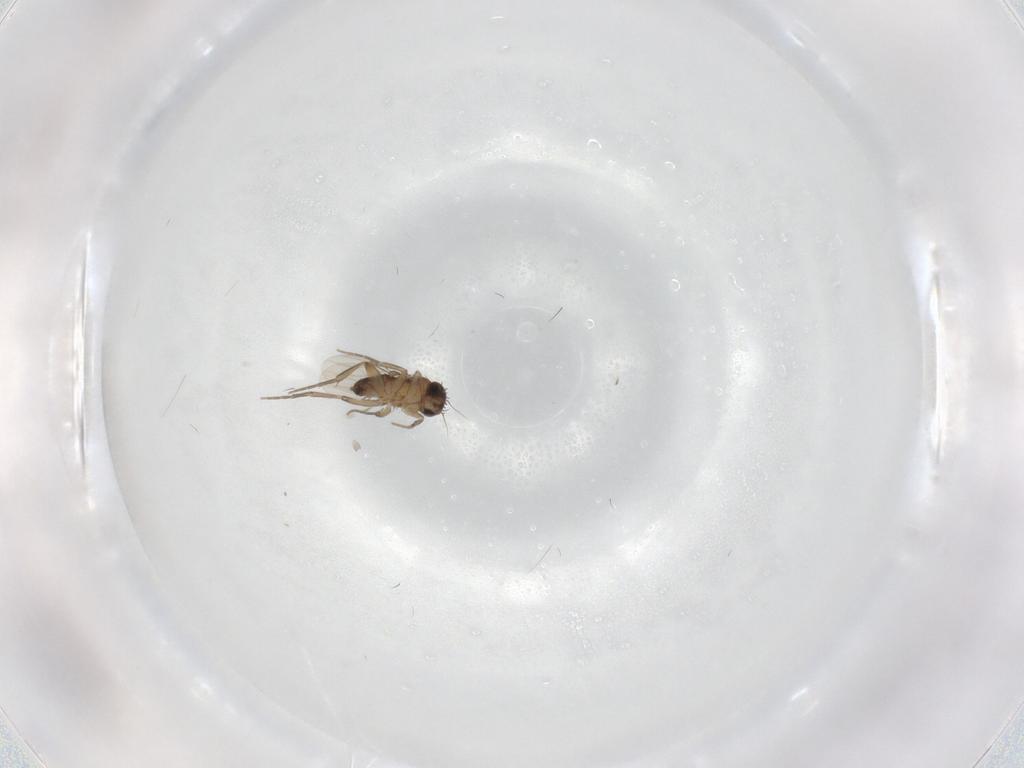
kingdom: Animalia
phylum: Arthropoda
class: Insecta
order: Diptera
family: Phoridae
